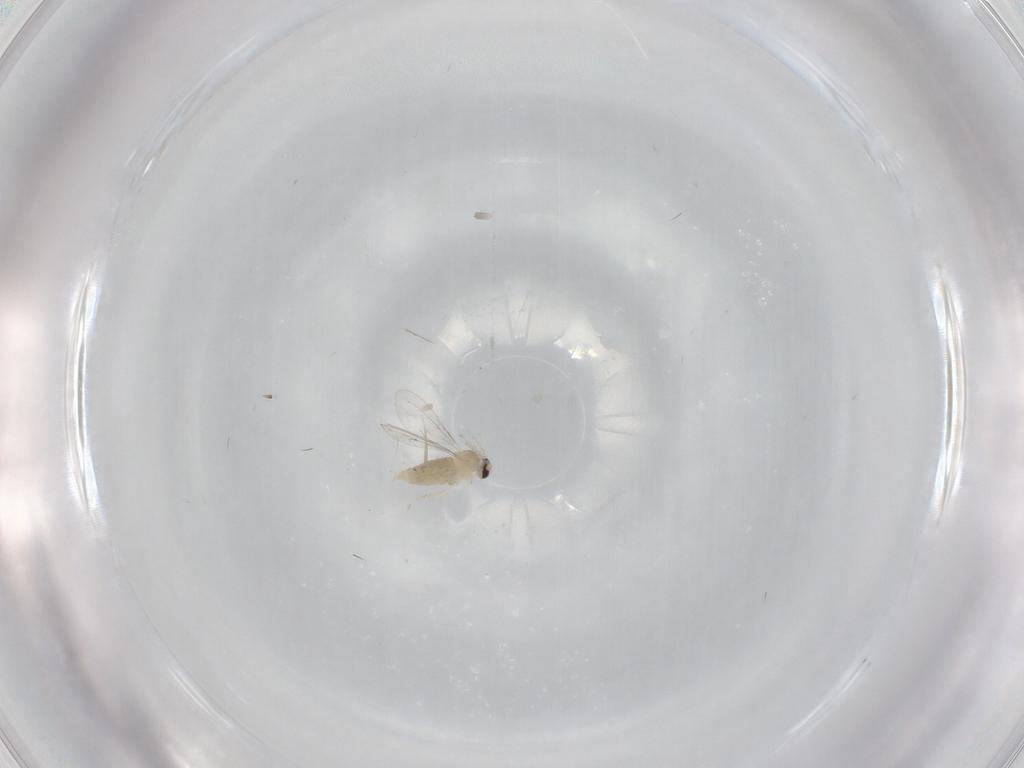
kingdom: Animalia
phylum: Arthropoda
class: Insecta
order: Diptera
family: Cecidomyiidae
